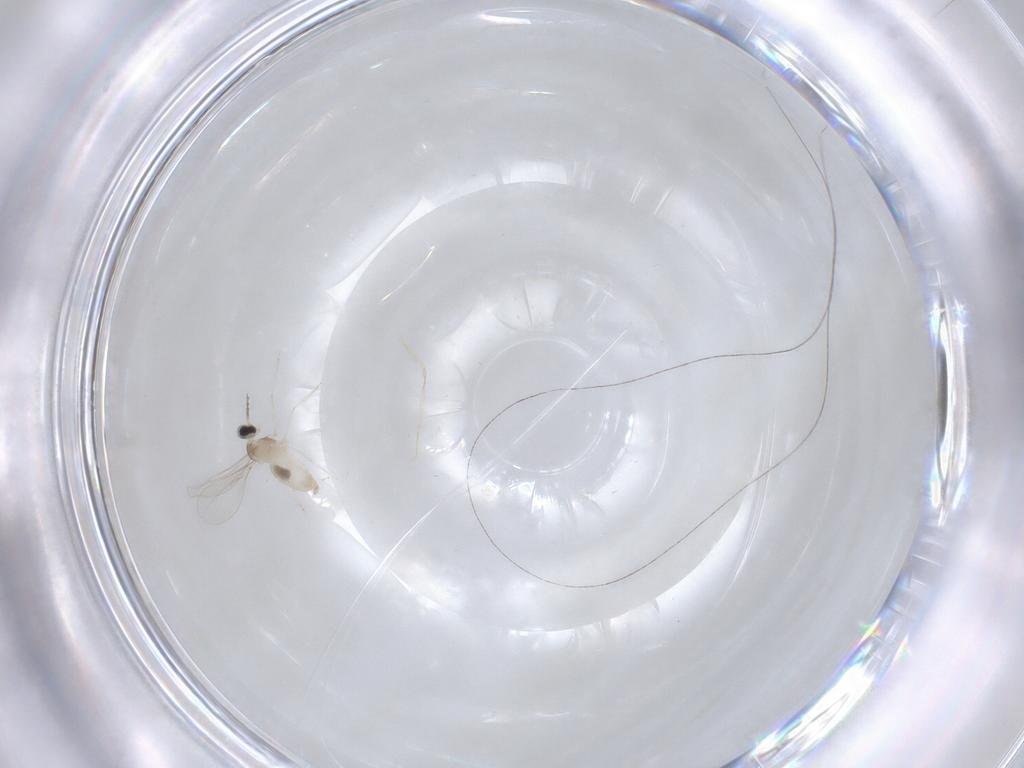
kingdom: Animalia
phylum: Arthropoda
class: Insecta
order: Diptera
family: Cecidomyiidae
